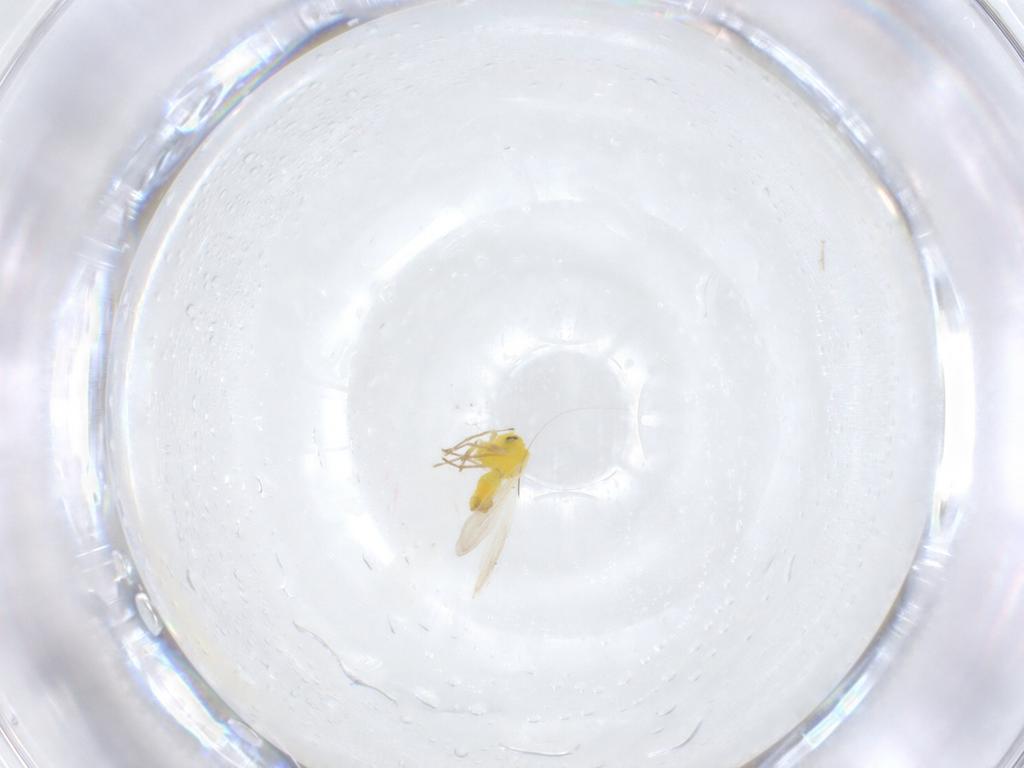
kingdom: Animalia
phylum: Arthropoda
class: Insecta
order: Hemiptera
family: Aleyrodidae
